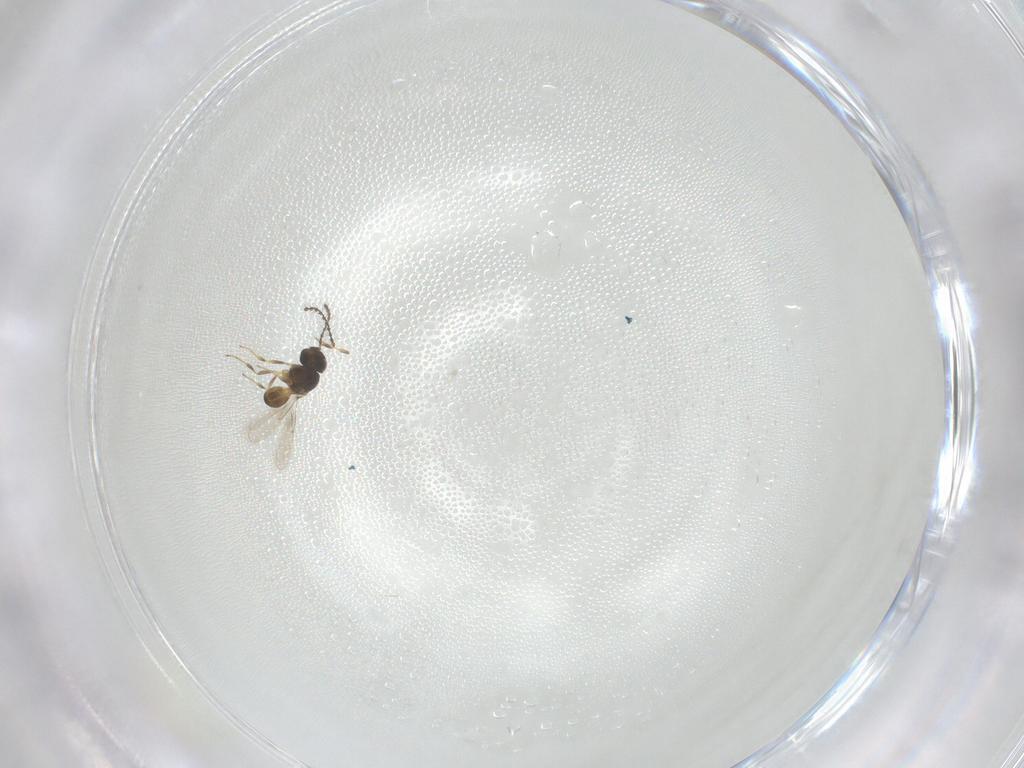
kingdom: Animalia
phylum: Arthropoda
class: Insecta
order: Hymenoptera
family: Scelionidae
